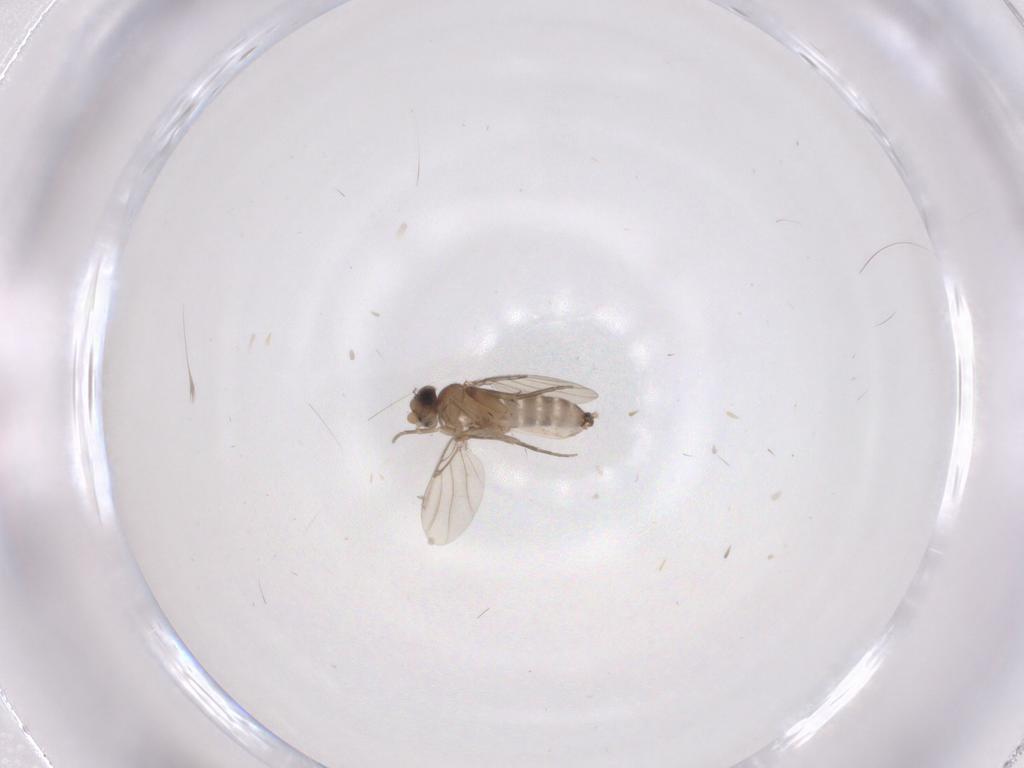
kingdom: Animalia
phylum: Arthropoda
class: Insecta
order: Diptera
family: Phoridae
